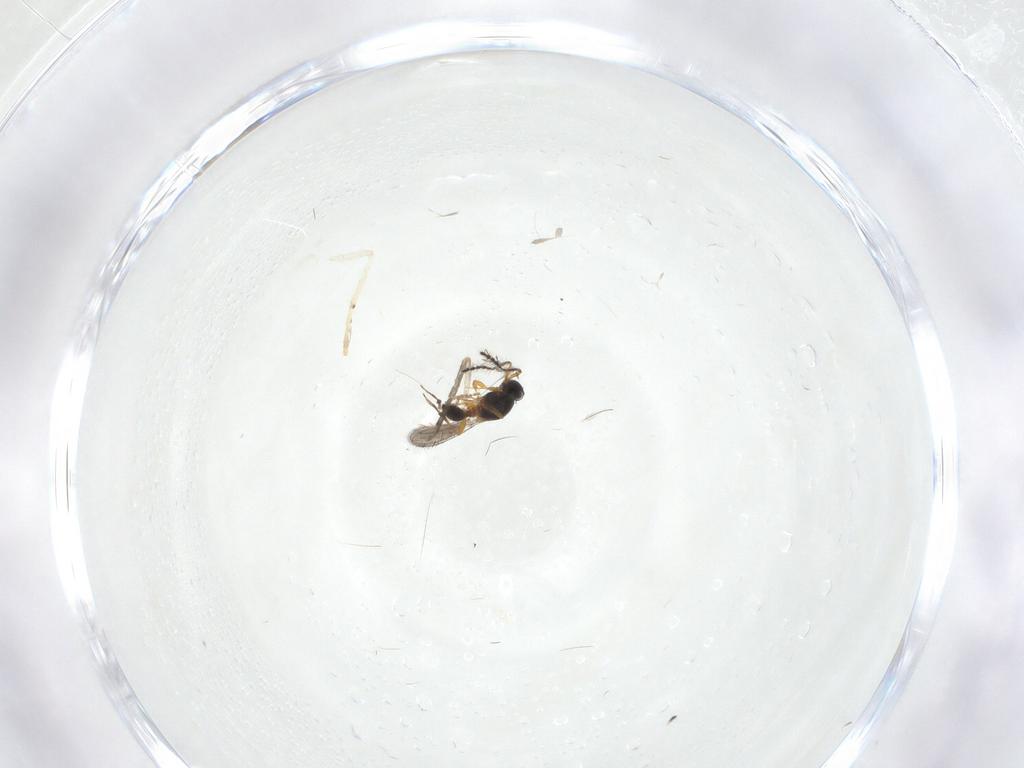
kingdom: Animalia
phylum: Arthropoda
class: Insecta
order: Hymenoptera
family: Platygastridae
